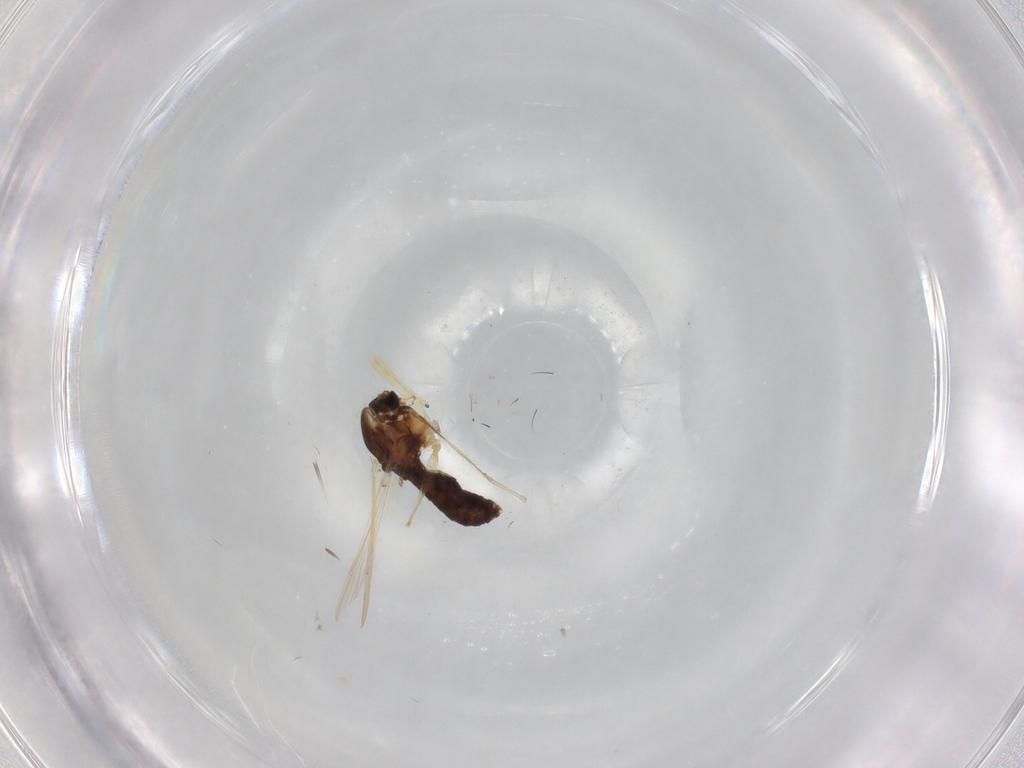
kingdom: Animalia
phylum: Arthropoda
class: Insecta
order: Diptera
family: Chironomidae
